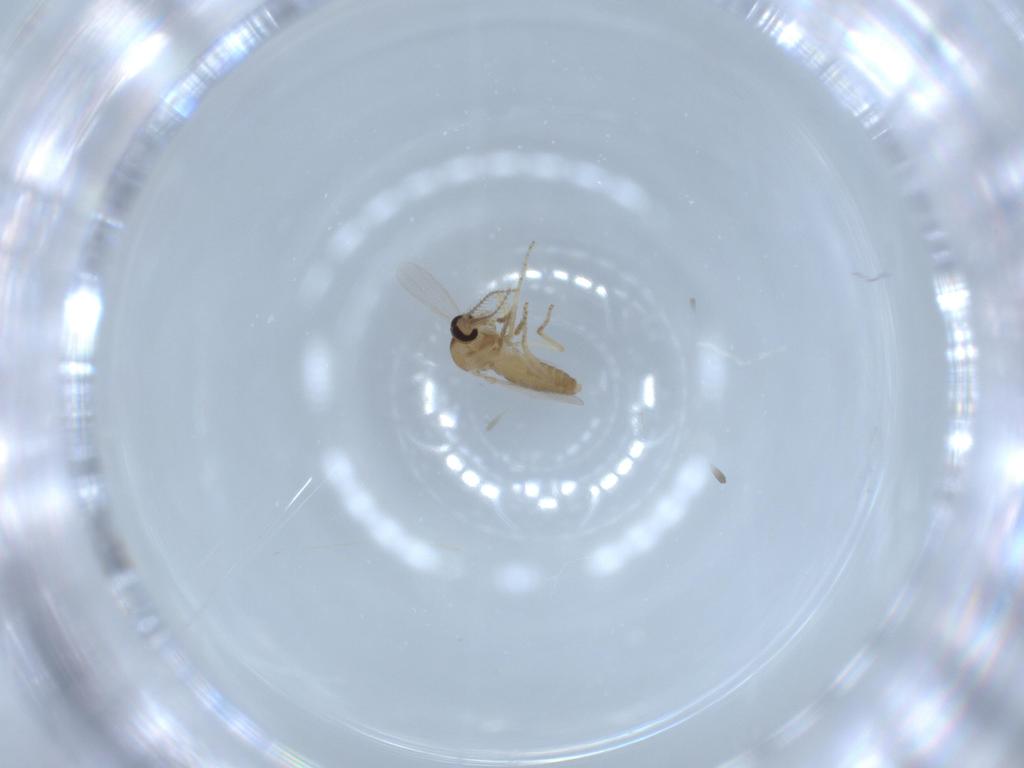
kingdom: Animalia
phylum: Arthropoda
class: Insecta
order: Diptera
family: Ceratopogonidae
